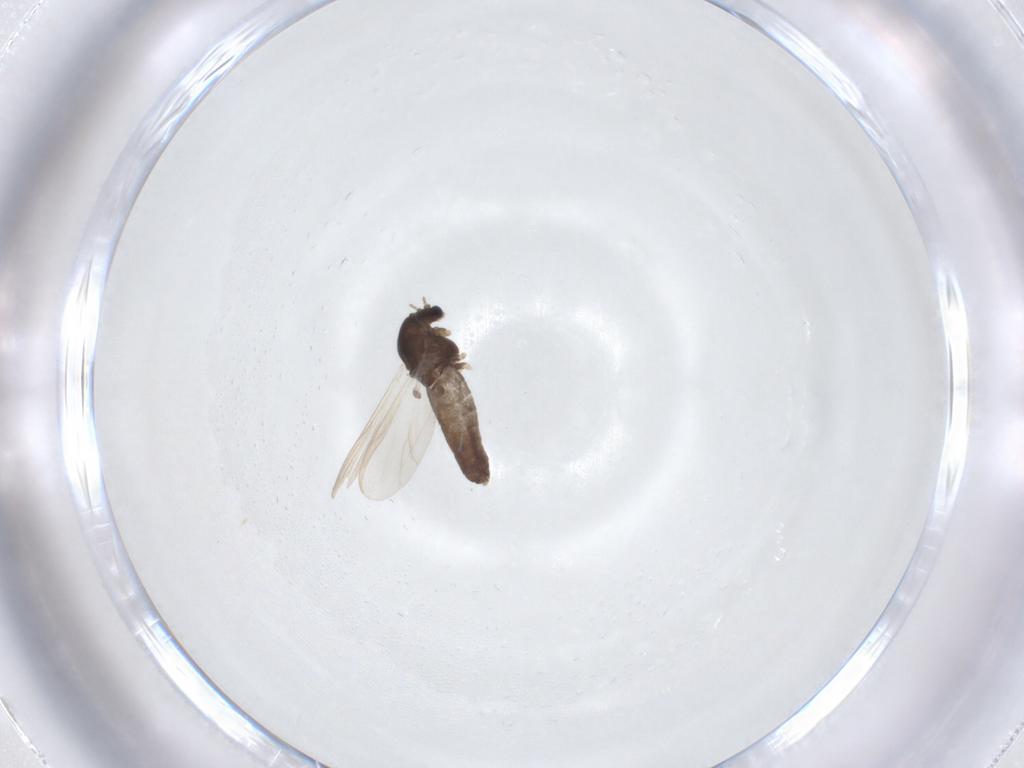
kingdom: Animalia
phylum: Arthropoda
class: Insecta
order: Diptera
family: Chironomidae
